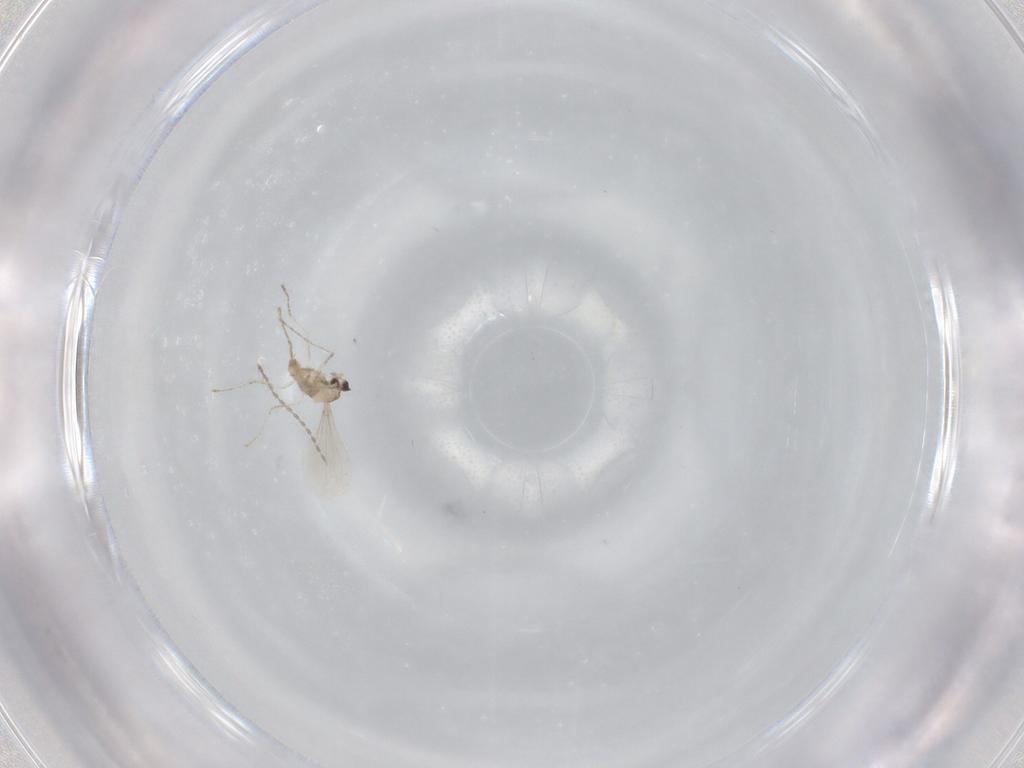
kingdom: Animalia
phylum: Arthropoda
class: Insecta
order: Diptera
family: Cecidomyiidae
